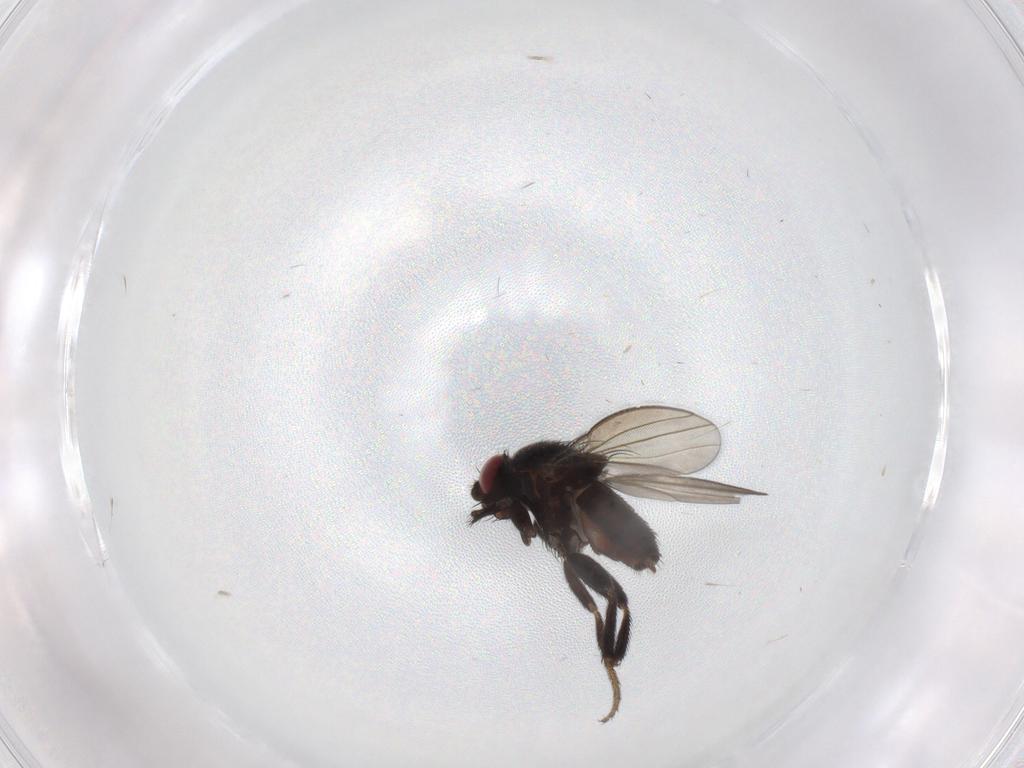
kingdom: Animalia
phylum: Arthropoda
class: Insecta
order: Diptera
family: Milichiidae
